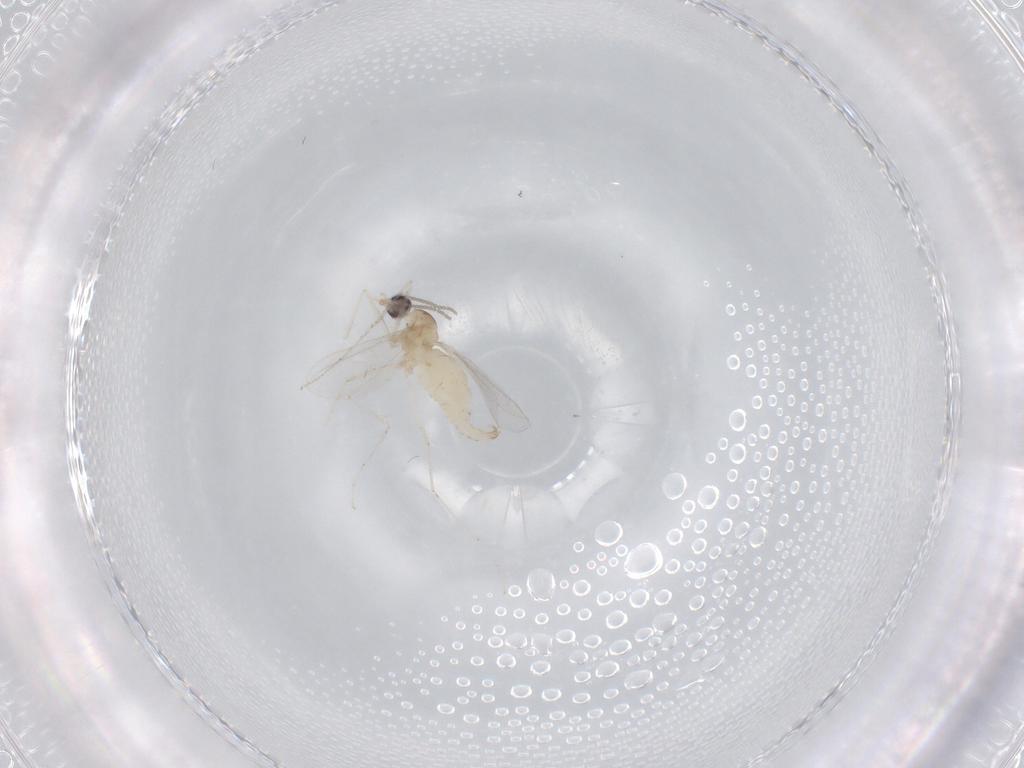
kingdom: Animalia
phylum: Arthropoda
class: Insecta
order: Diptera
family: Cecidomyiidae
